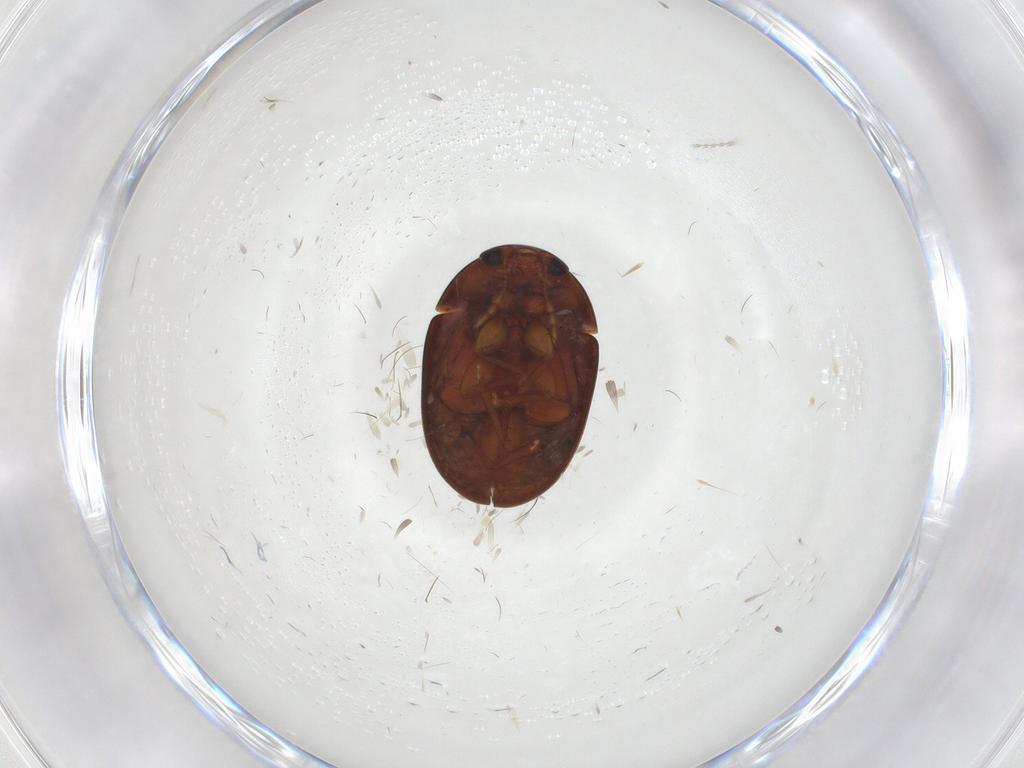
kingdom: Animalia
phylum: Arthropoda
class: Insecta
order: Coleoptera
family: Phalacridae
